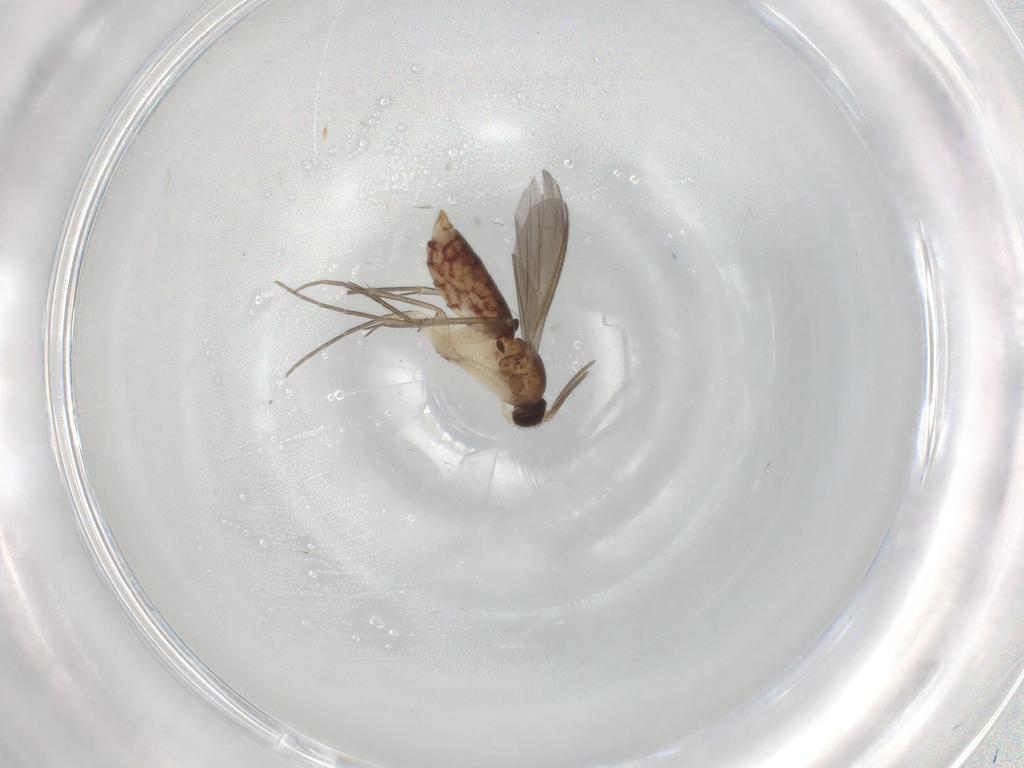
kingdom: Animalia
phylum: Arthropoda
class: Insecta
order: Diptera
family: Mycetophilidae
